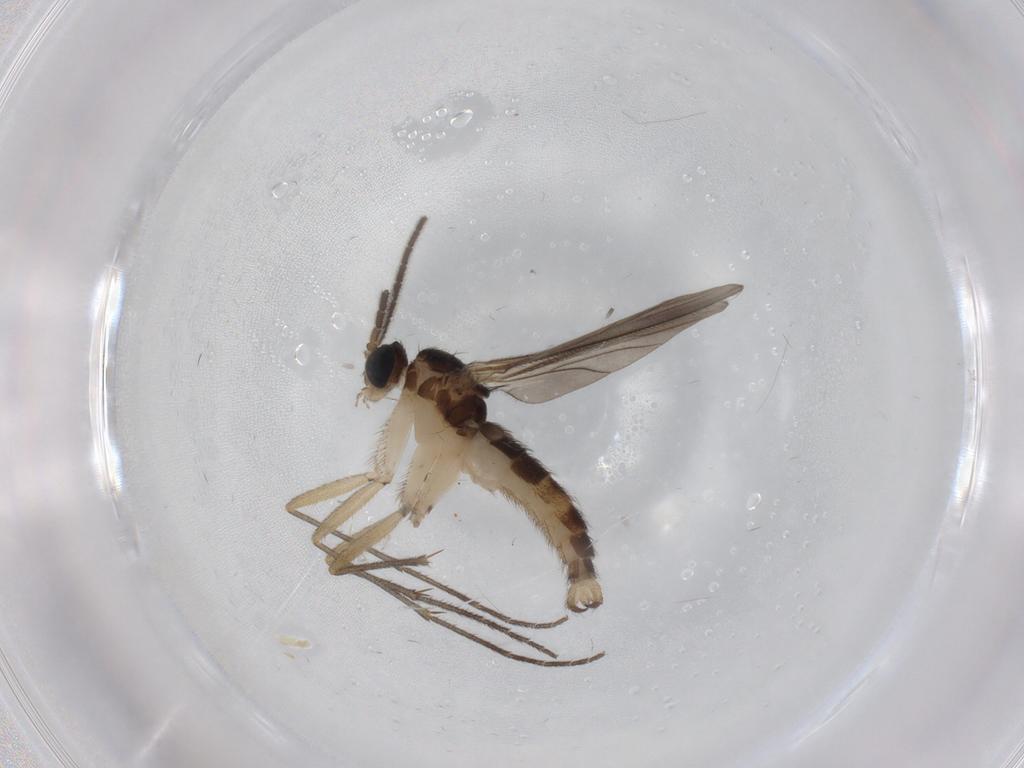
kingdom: Animalia
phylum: Arthropoda
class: Insecta
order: Diptera
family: Sciaridae
